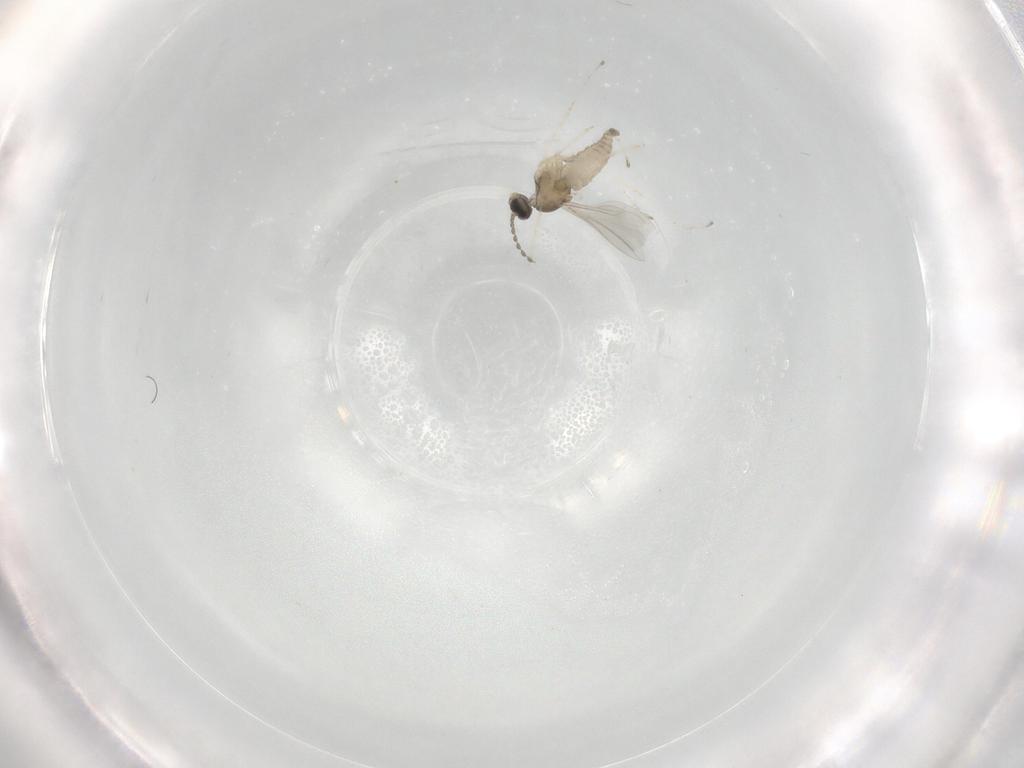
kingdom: Animalia
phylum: Arthropoda
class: Insecta
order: Diptera
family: Cecidomyiidae
